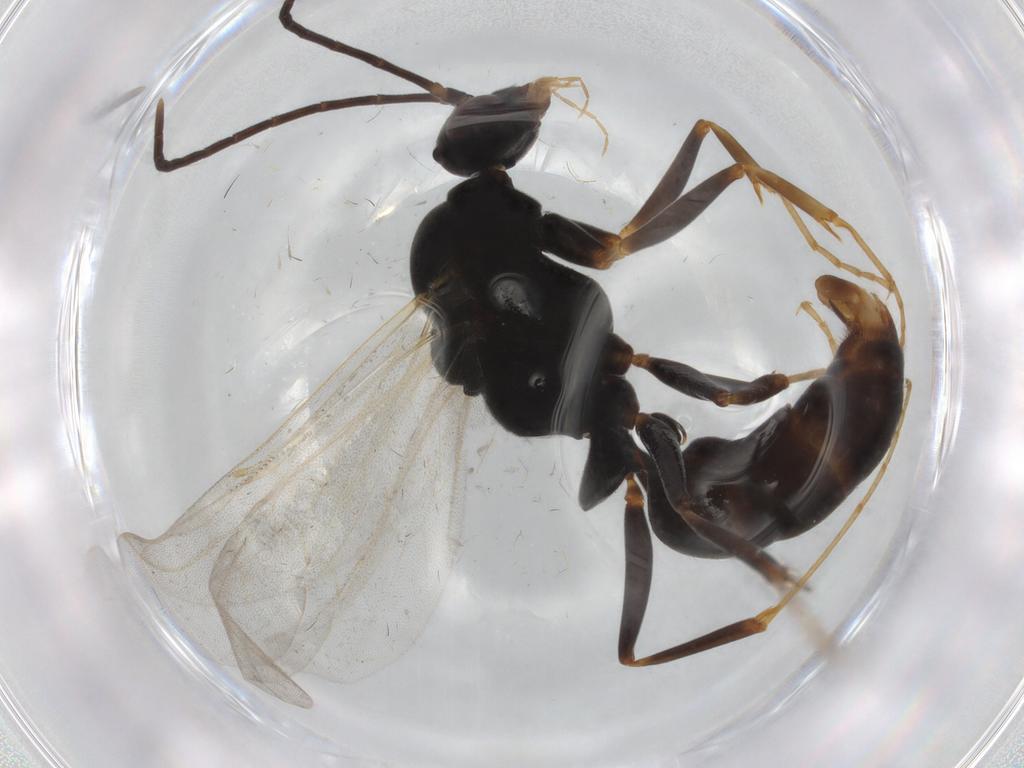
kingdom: Animalia
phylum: Arthropoda
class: Insecta
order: Hymenoptera
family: Formicidae
